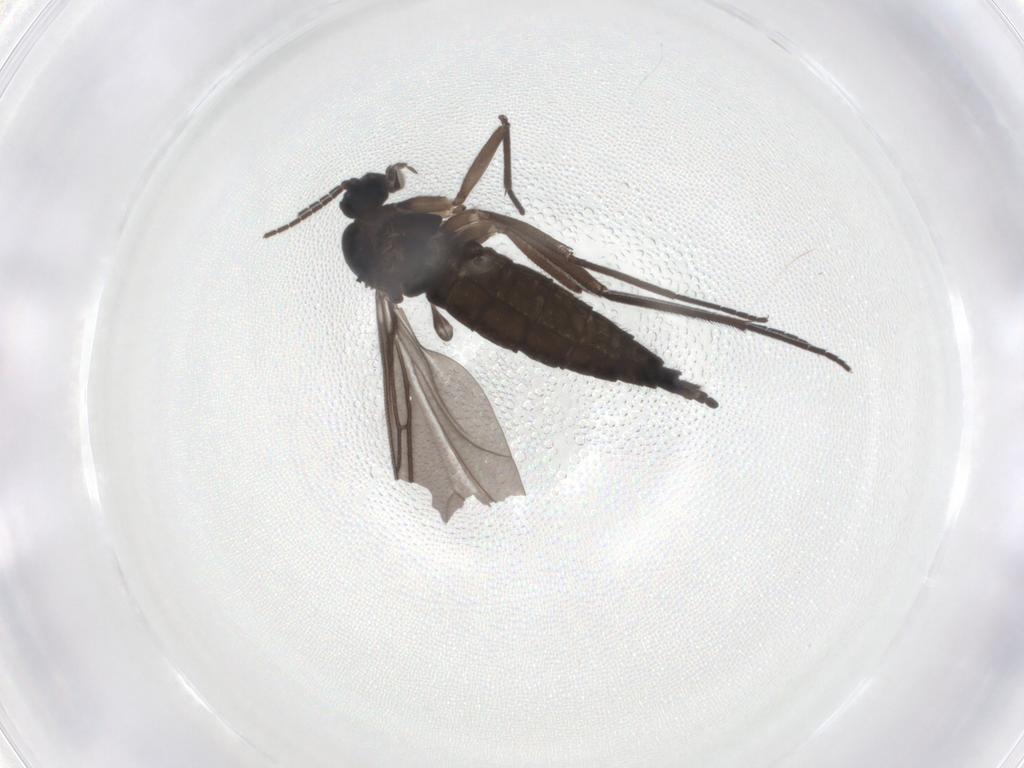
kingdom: Animalia
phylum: Arthropoda
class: Insecta
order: Diptera
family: Sciaridae
